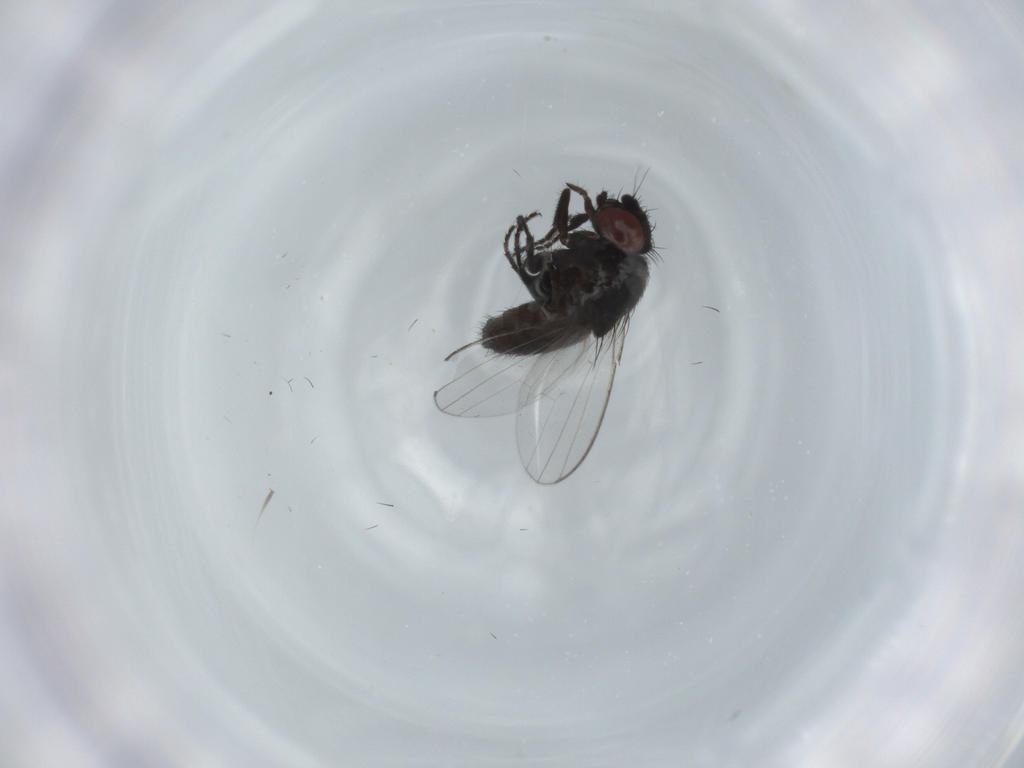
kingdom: Animalia
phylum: Arthropoda
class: Insecta
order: Diptera
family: Milichiidae
